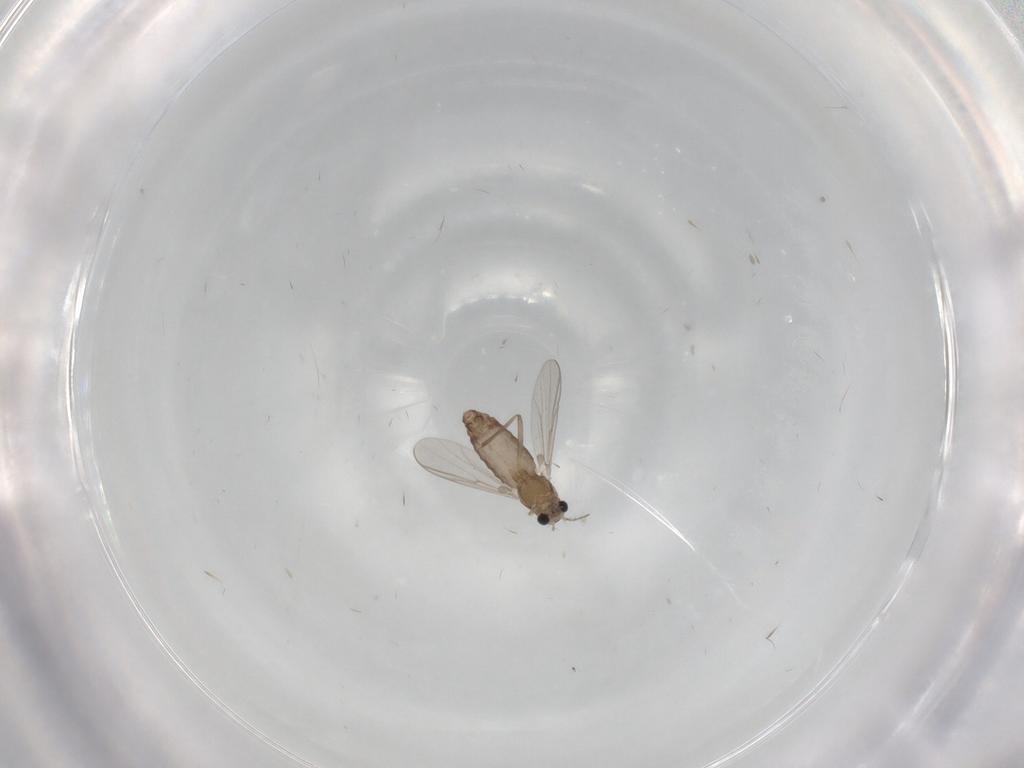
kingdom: Animalia
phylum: Arthropoda
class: Insecta
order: Diptera
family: Chironomidae
